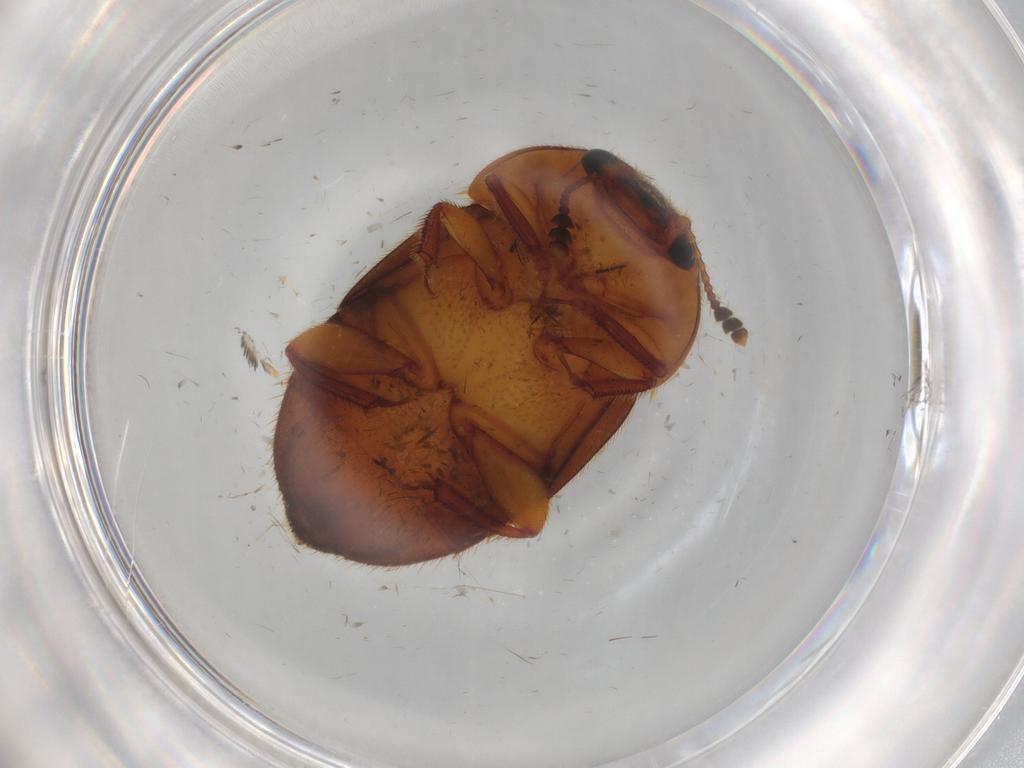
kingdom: Animalia
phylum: Arthropoda
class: Insecta
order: Coleoptera
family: Nitidulidae
